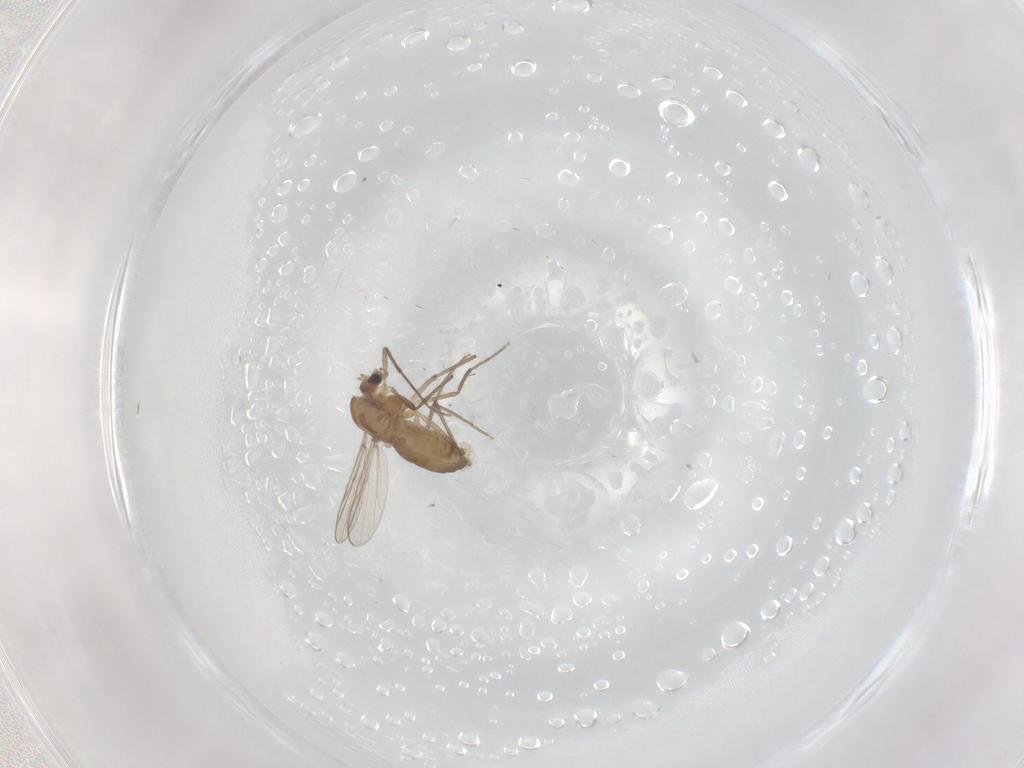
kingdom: Animalia
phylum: Arthropoda
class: Insecta
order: Diptera
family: Chironomidae
